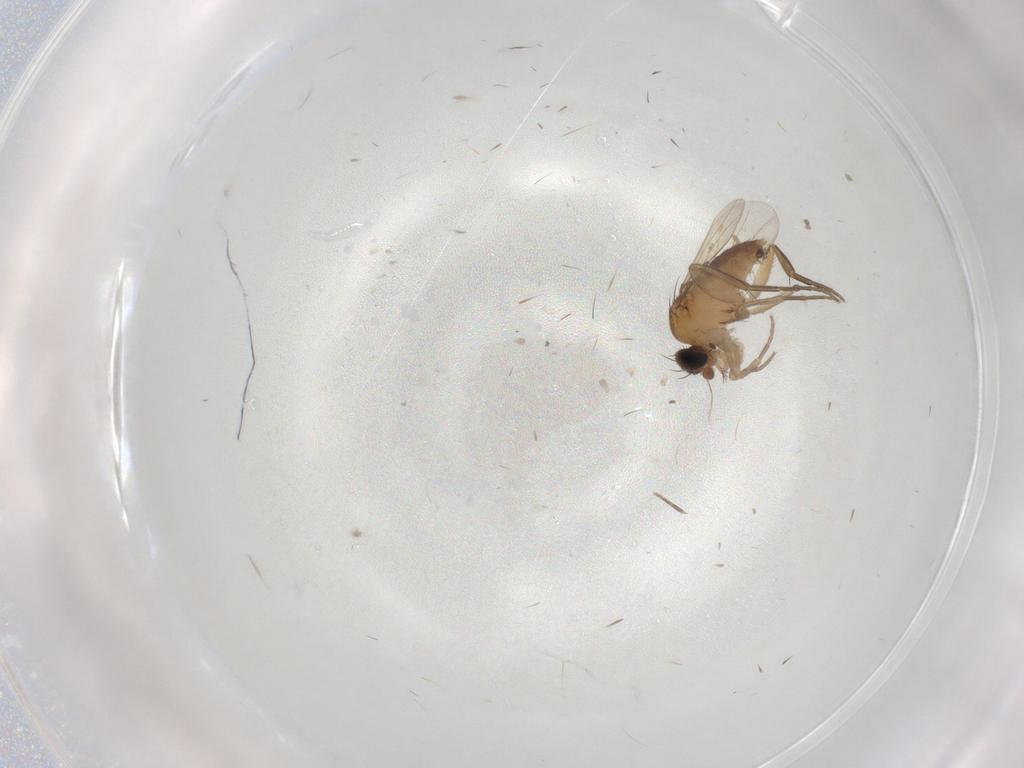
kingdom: Animalia
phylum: Arthropoda
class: Insecta
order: Diptera
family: Phoridae
